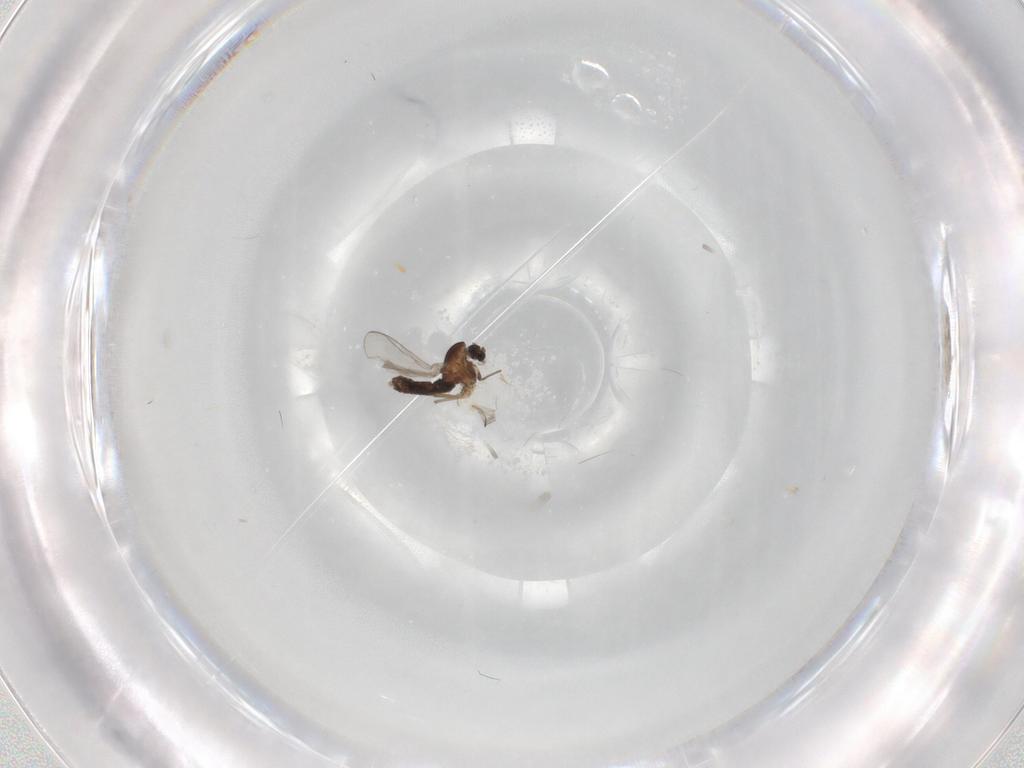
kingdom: Animalia
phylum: Arthropoda
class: Insecta
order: Diptera
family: Chironomidae
